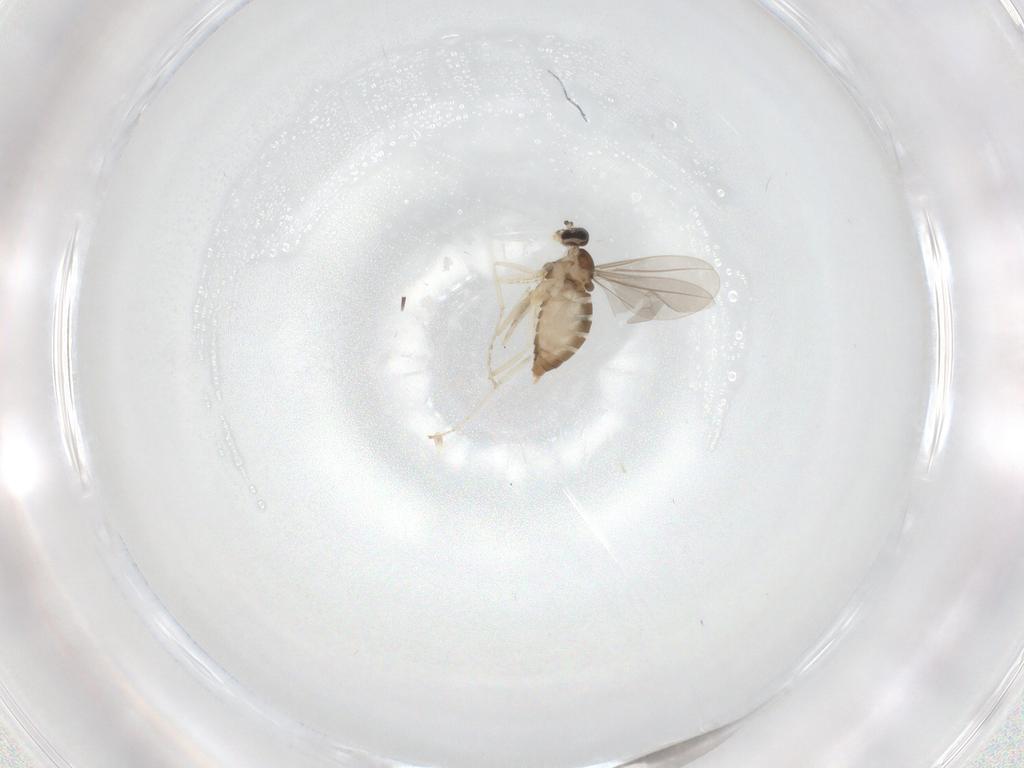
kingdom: Animalia
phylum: Arthropoda
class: Insecta
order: Diptera
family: Cecidomyiidae
